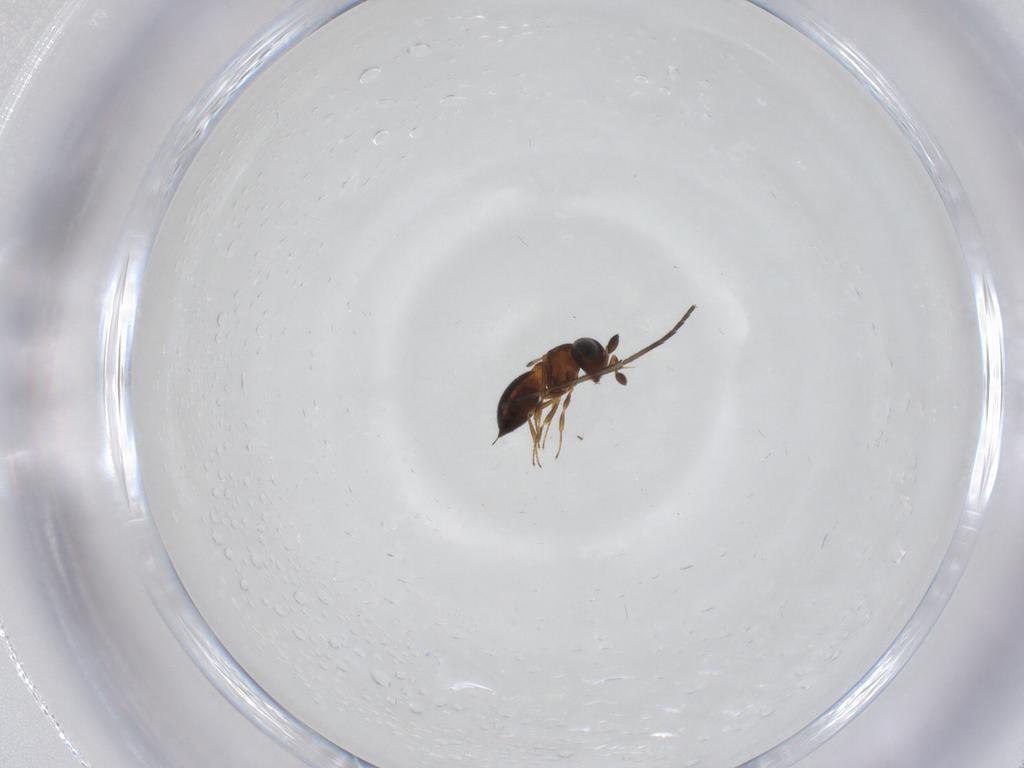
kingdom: Animalia
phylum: Arthropoda
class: Insecta
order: Hymenoptera
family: Scelionidae
